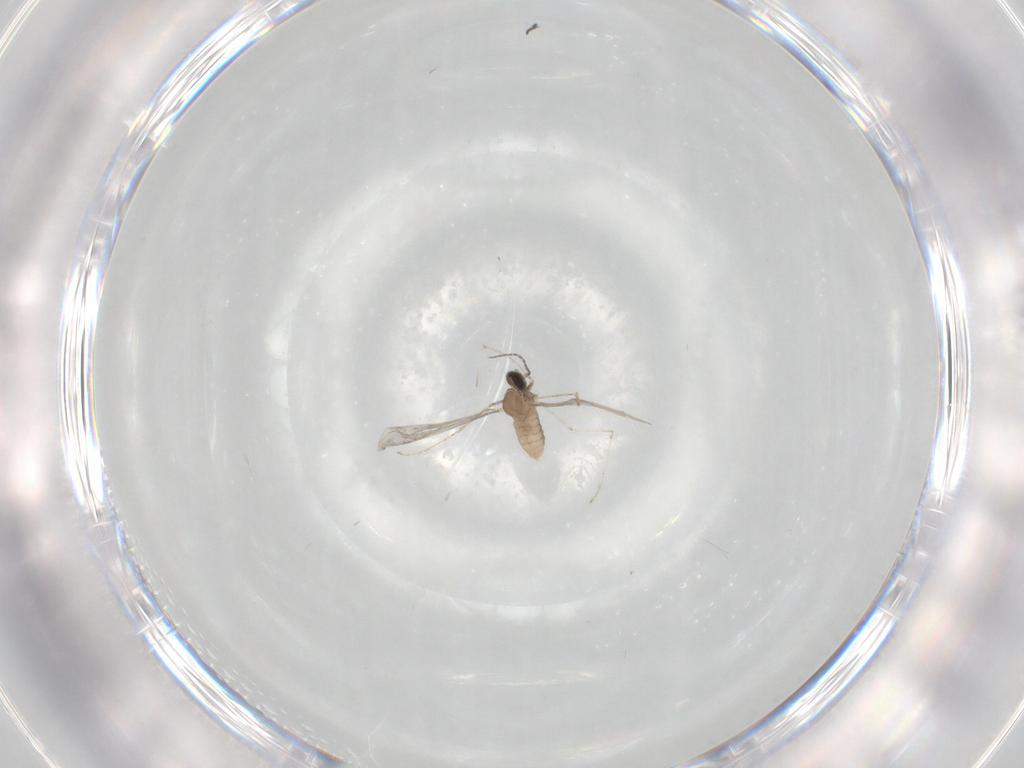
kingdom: Animalia
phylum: Arthropoda
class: Insecta
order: Diptera
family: Cecidomyiidae
